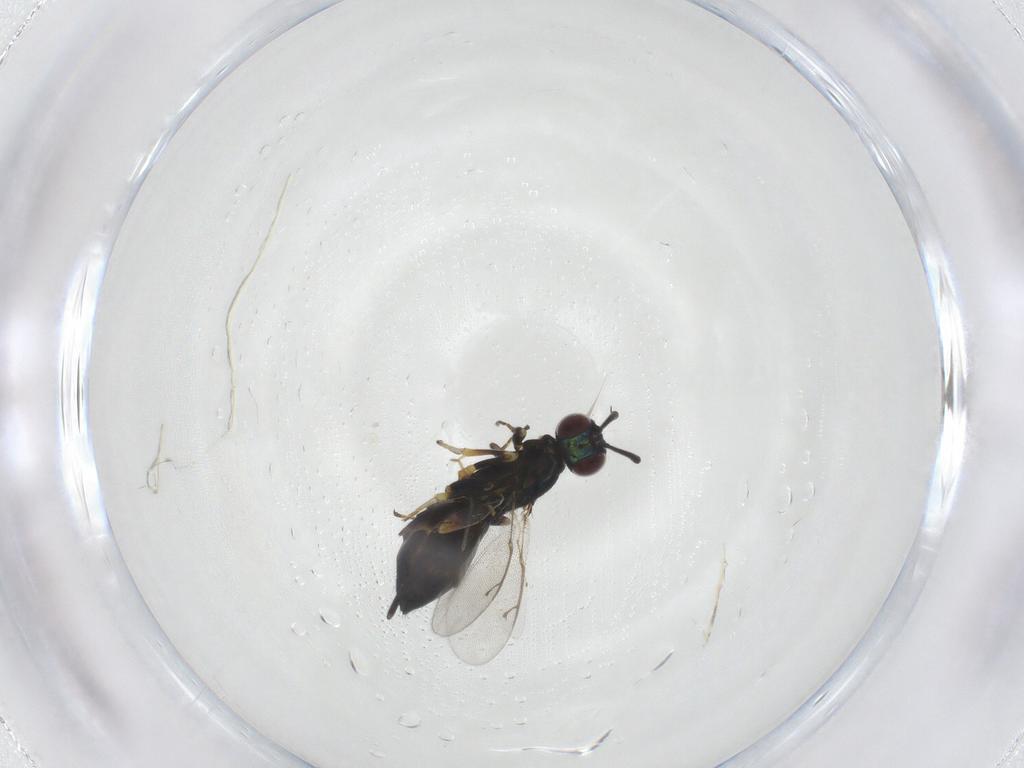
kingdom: Animalia
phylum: Arthropoda
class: Insecta
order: Hymenoptera
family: Eupelmidae
